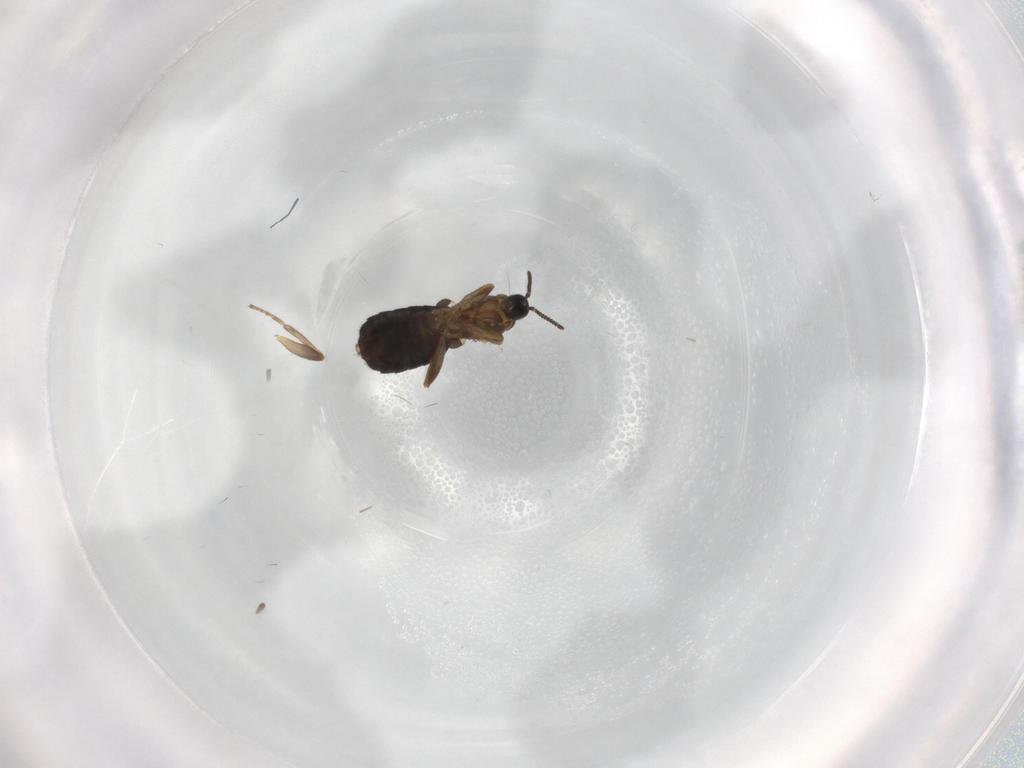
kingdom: Animalia
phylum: Arthropoda
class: Insecta
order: Diptera
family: Scatopsidae
